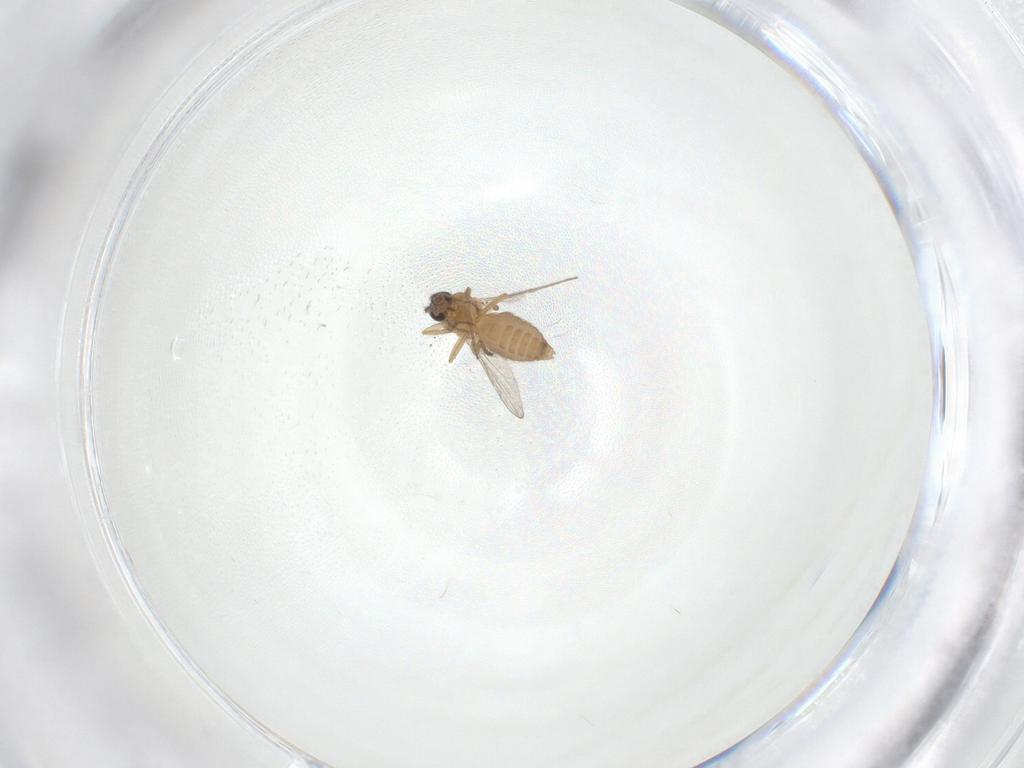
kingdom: Animalia
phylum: Arthropoda
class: Insecta
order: Diptera
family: Ceratopogonidae
